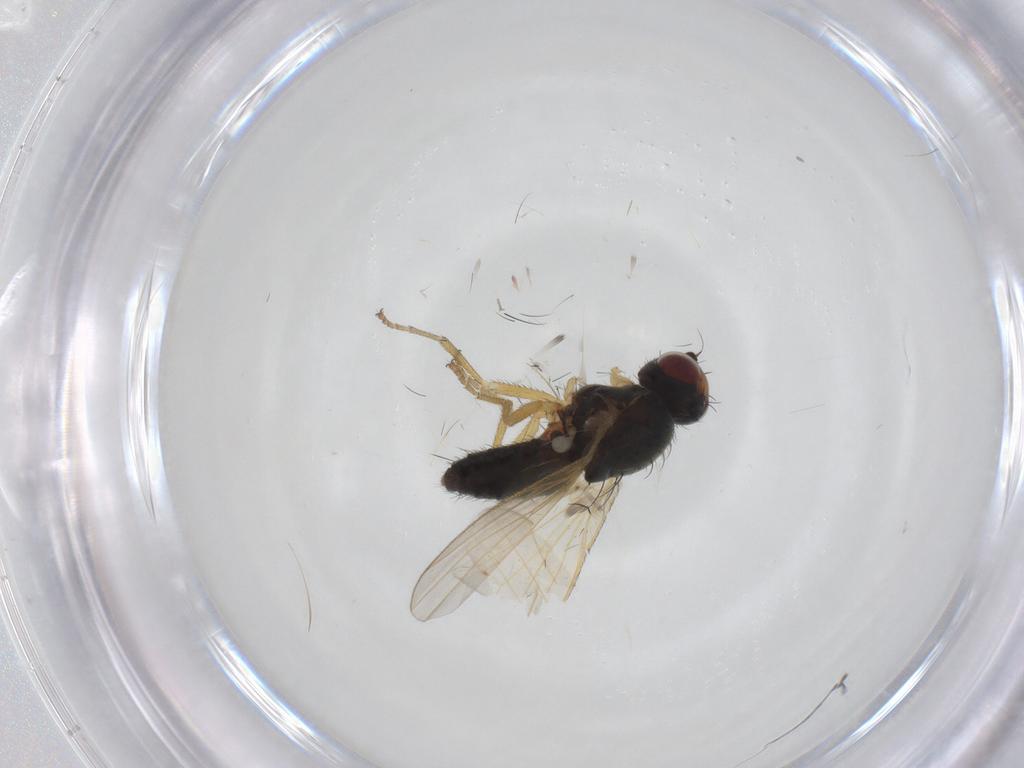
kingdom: Animalia
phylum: Arthropoda
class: Insecta
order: Diptera
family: Heleomyzidae
